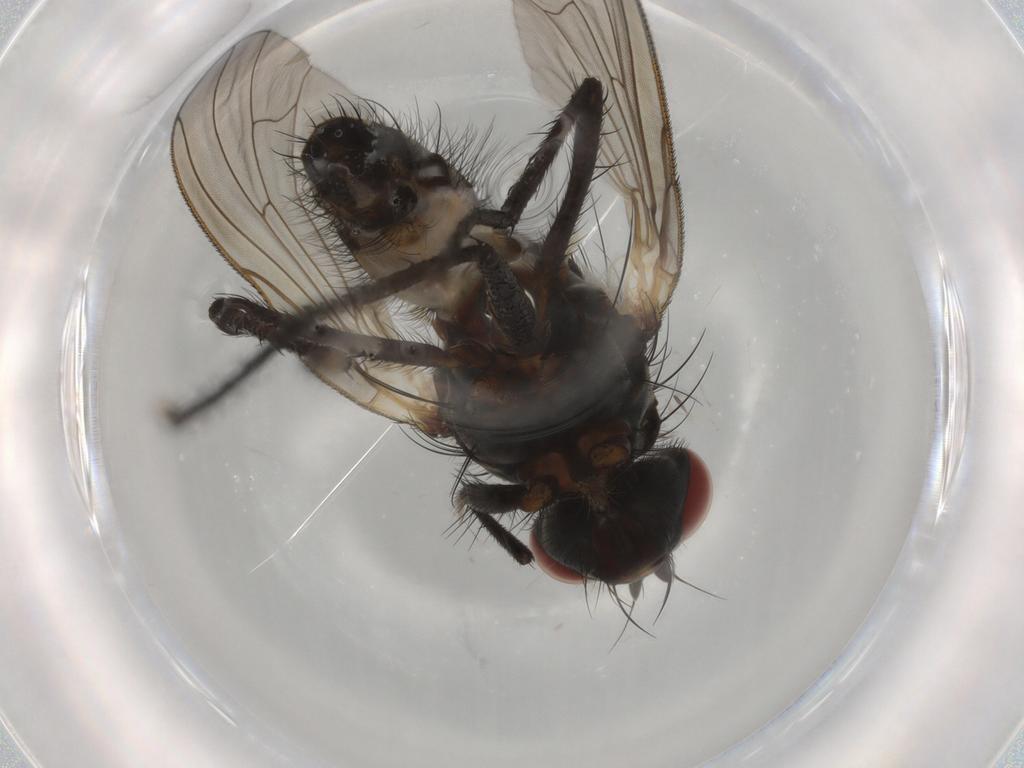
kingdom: Animalia
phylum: Arthropoda
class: Insecta
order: Diptera
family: Anthomyiidae
